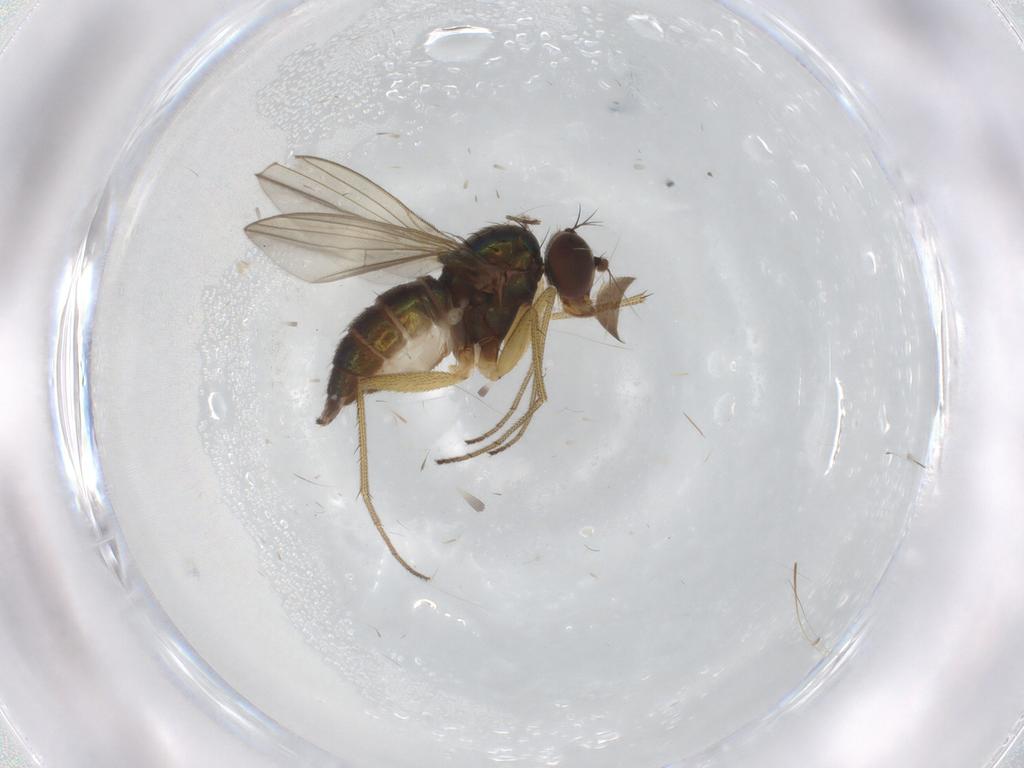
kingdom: Animalia
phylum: Arthropoda
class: Insecta
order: Diptera
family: Dolichopodidae
